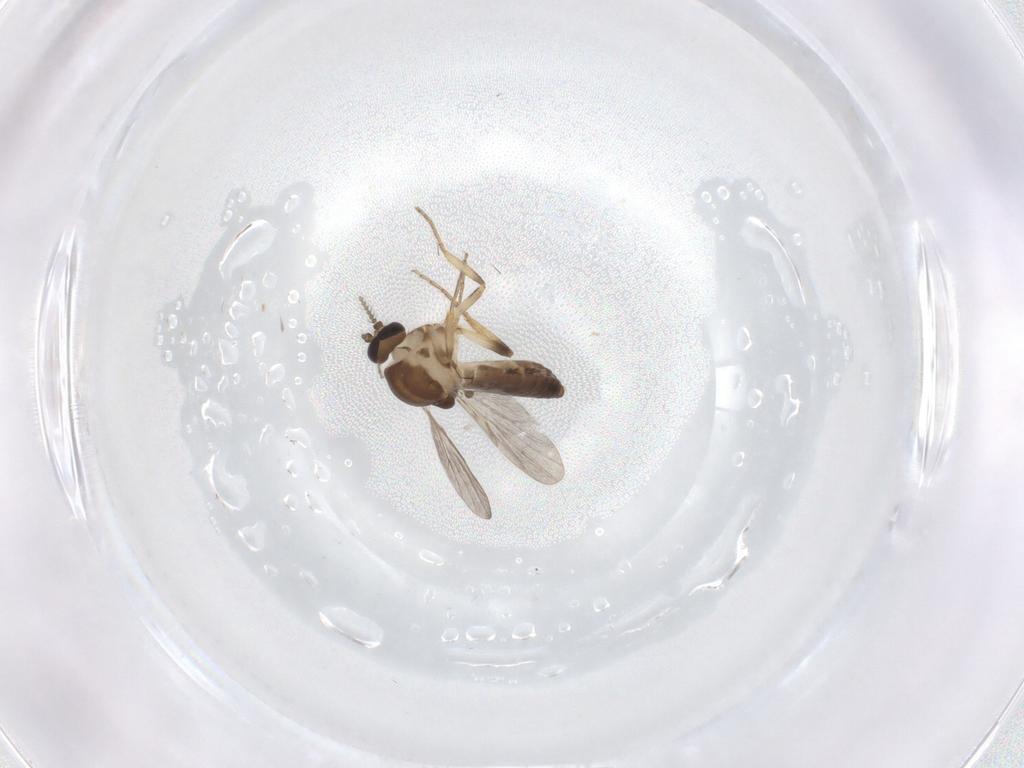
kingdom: Animalia
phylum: Arthropoda
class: Insecta
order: Diptera
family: Ceratopogonidae
